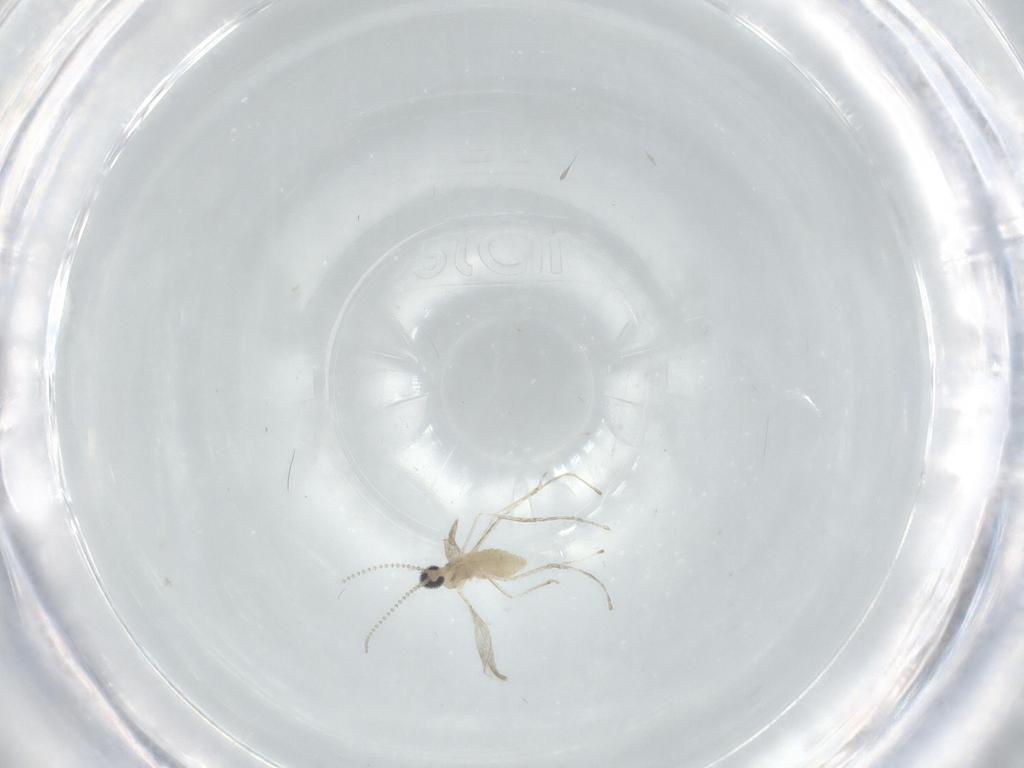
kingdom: Animalia
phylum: Arthropoda
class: Insecta
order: Diptera
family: Cecidomyiidae
